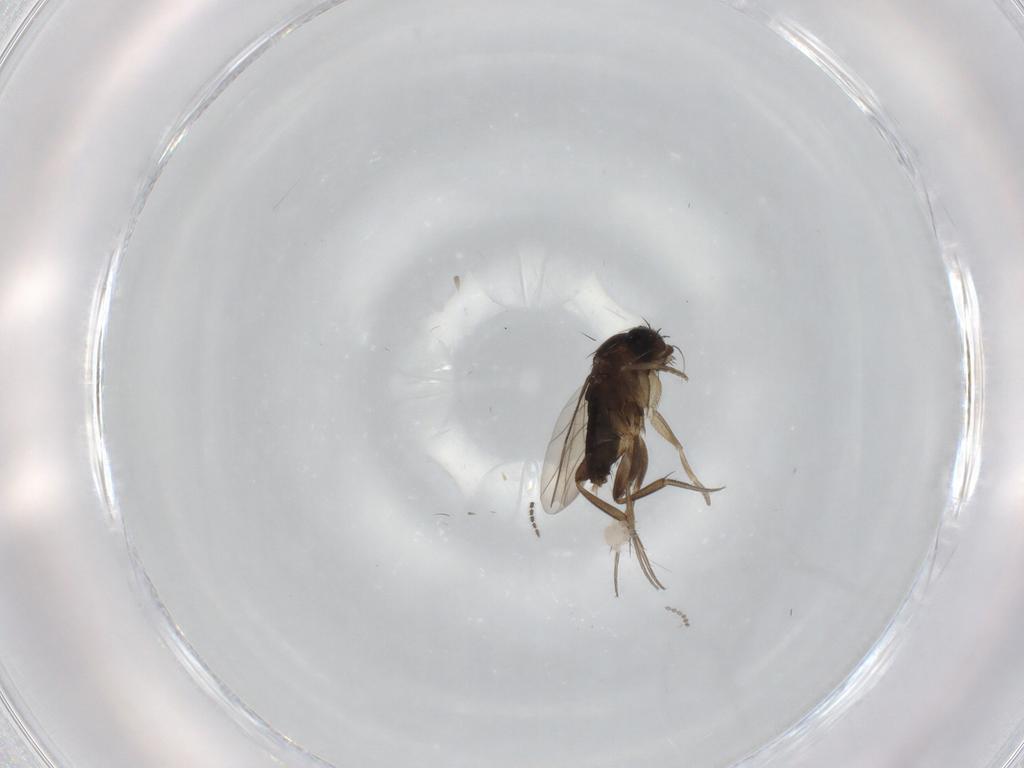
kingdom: Animalia
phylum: Arthropoda
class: Insecta
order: Diptera
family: Phoridae
